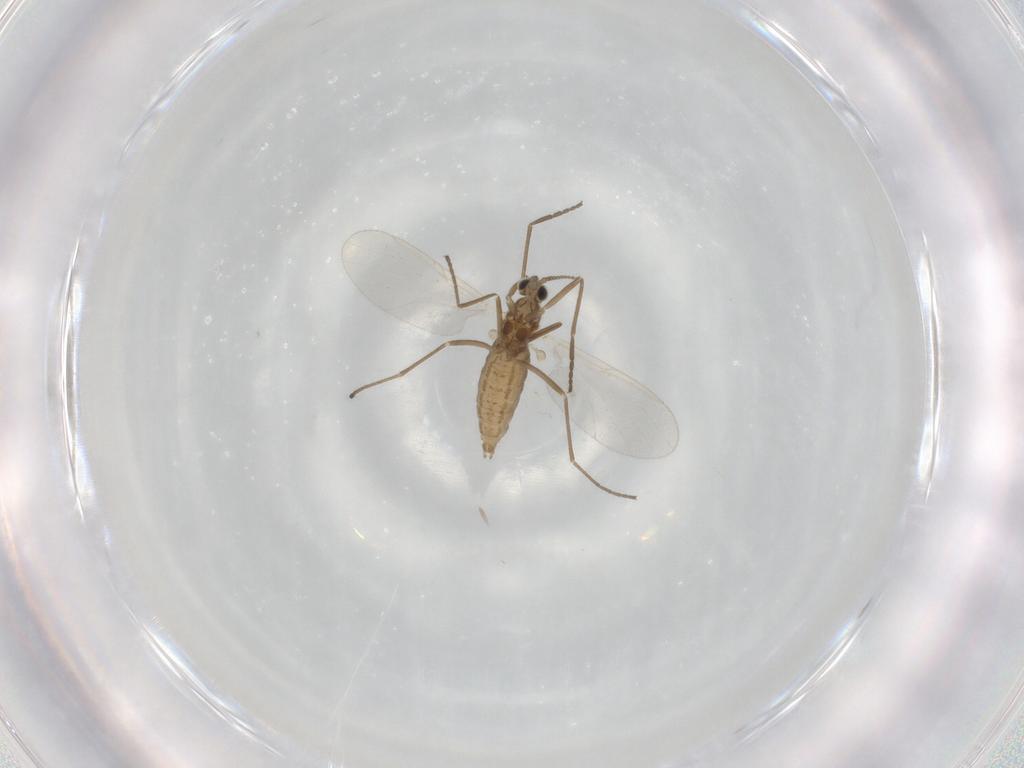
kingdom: Animalia
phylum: Arthropoda
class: Insecta
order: Diptera
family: Cecidomyiidae
